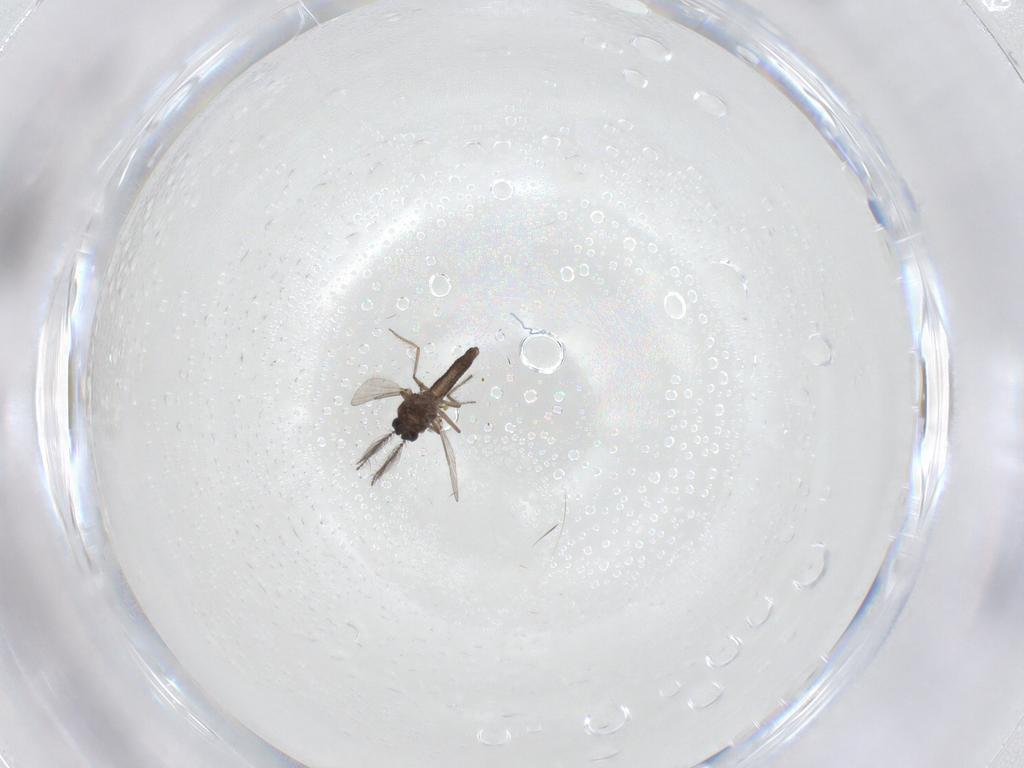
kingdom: Animalia
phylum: Arthropoda
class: Insecta
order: Diptera
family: Ceratopogonidae
